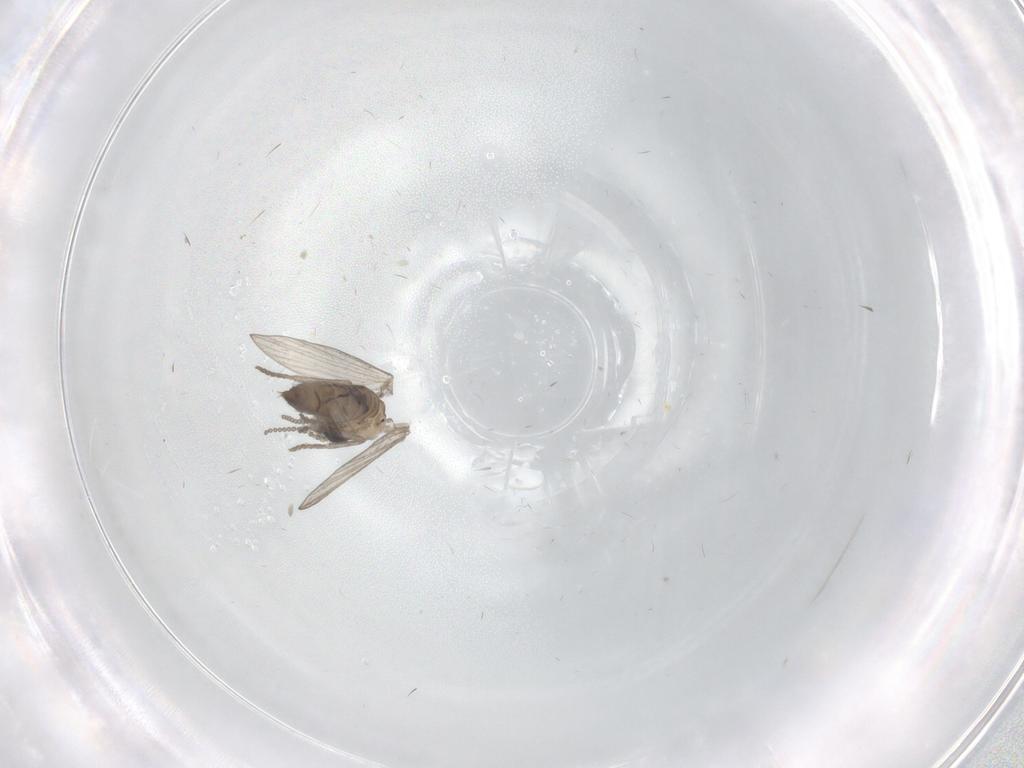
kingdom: Animalia
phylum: Arthropoda
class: Insecta
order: Diptera
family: Psychodidae
